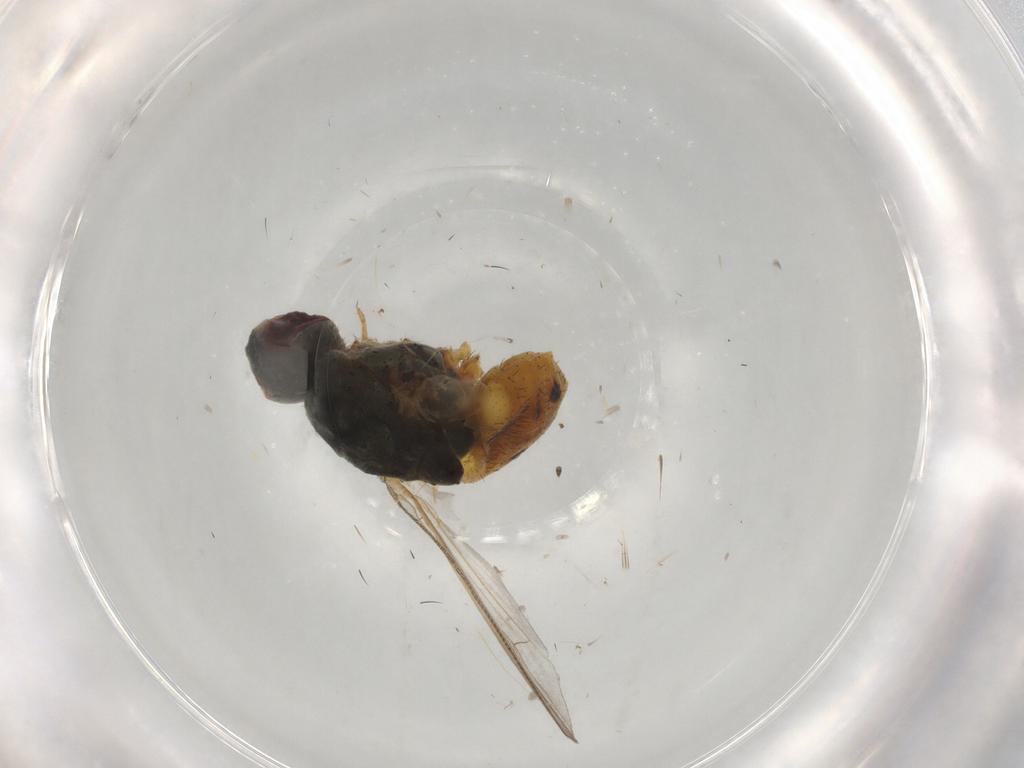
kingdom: Animalia
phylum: Arthropoda
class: Insecta
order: Diptera
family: Muscidae
